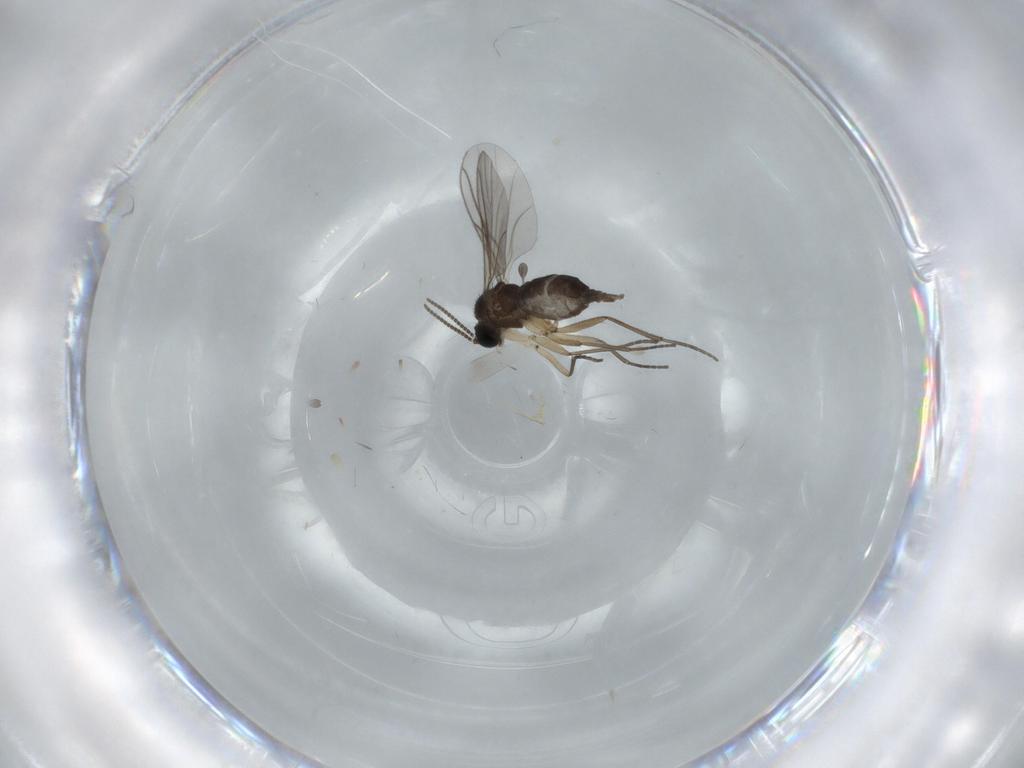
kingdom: Animalia
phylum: Arthropoda
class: Insecta
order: Diptera
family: Sciaridae
